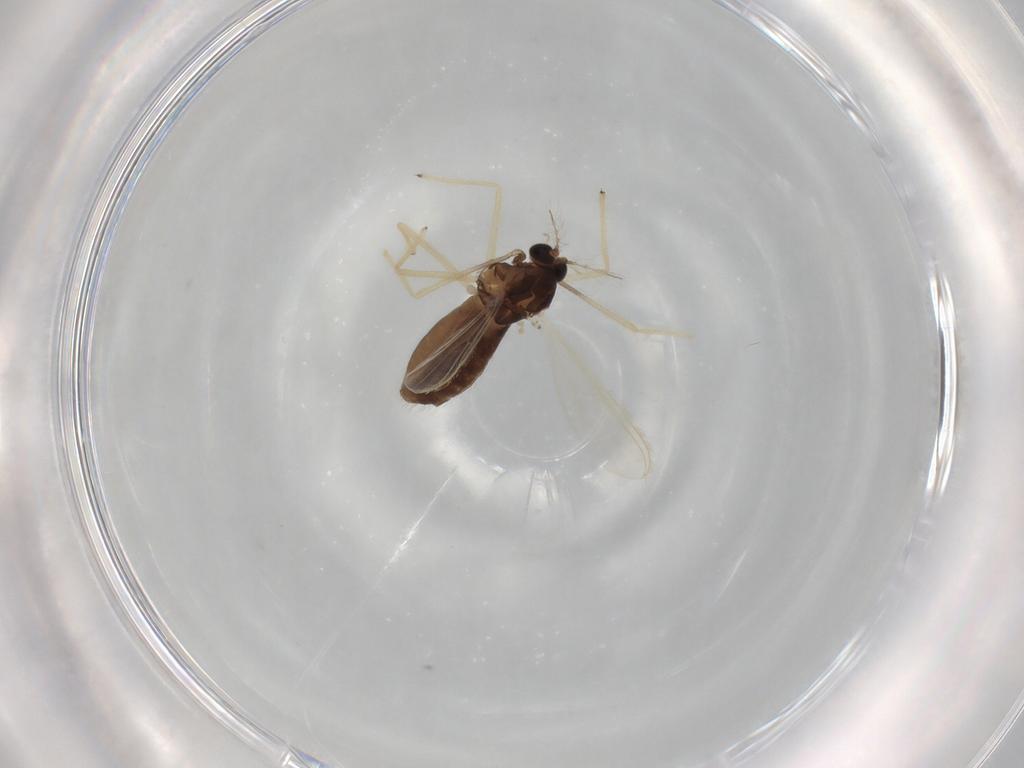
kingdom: Animalia
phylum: Arthropoda
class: Insecta
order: Diptera
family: Chironomidae
